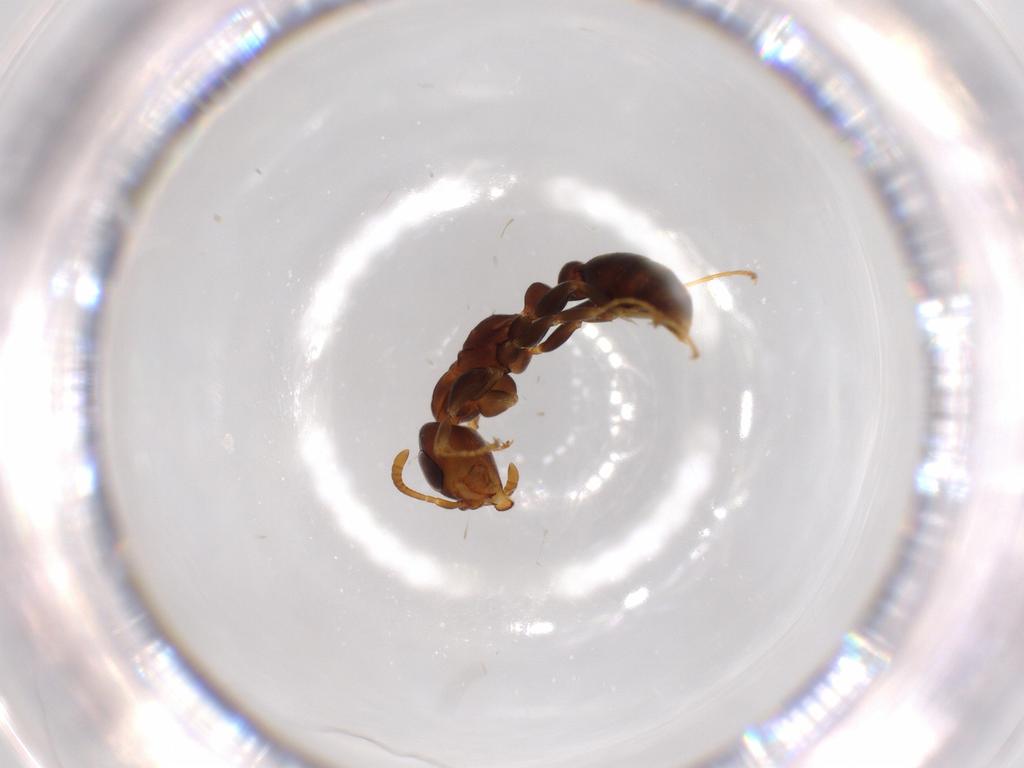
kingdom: Animalia
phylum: Arthropoda
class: Insecta
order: Hymenoptera
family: Formicidae
